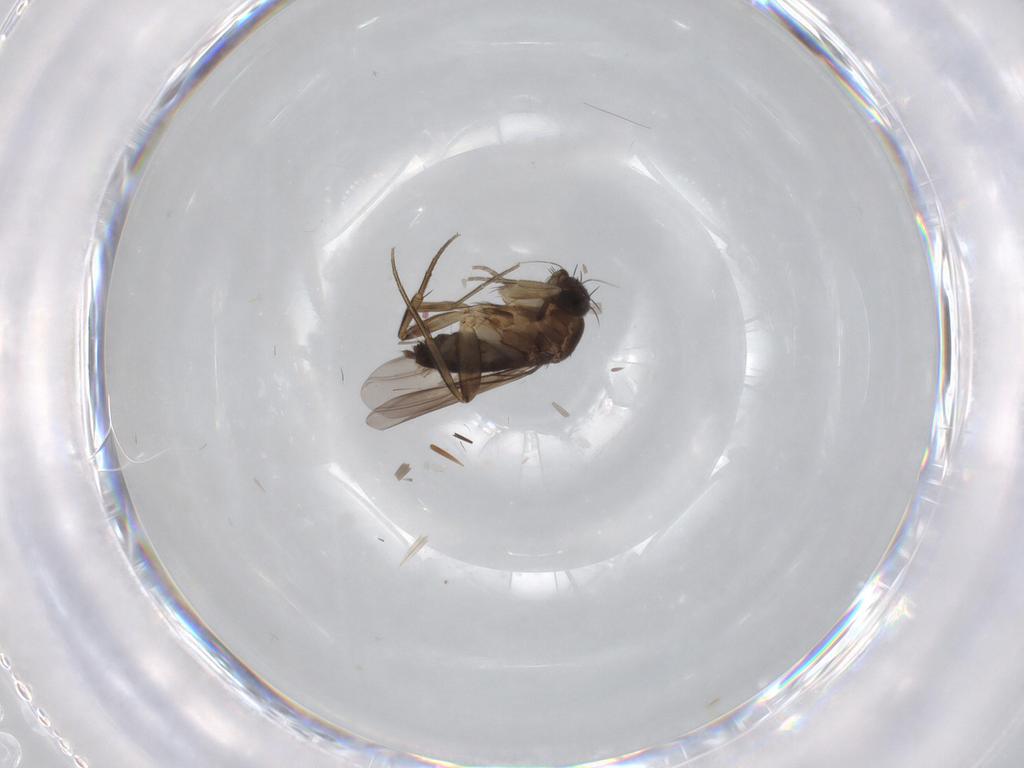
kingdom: Animalia
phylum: Arthropoda
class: Insecta
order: Diptera
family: Phoridae
